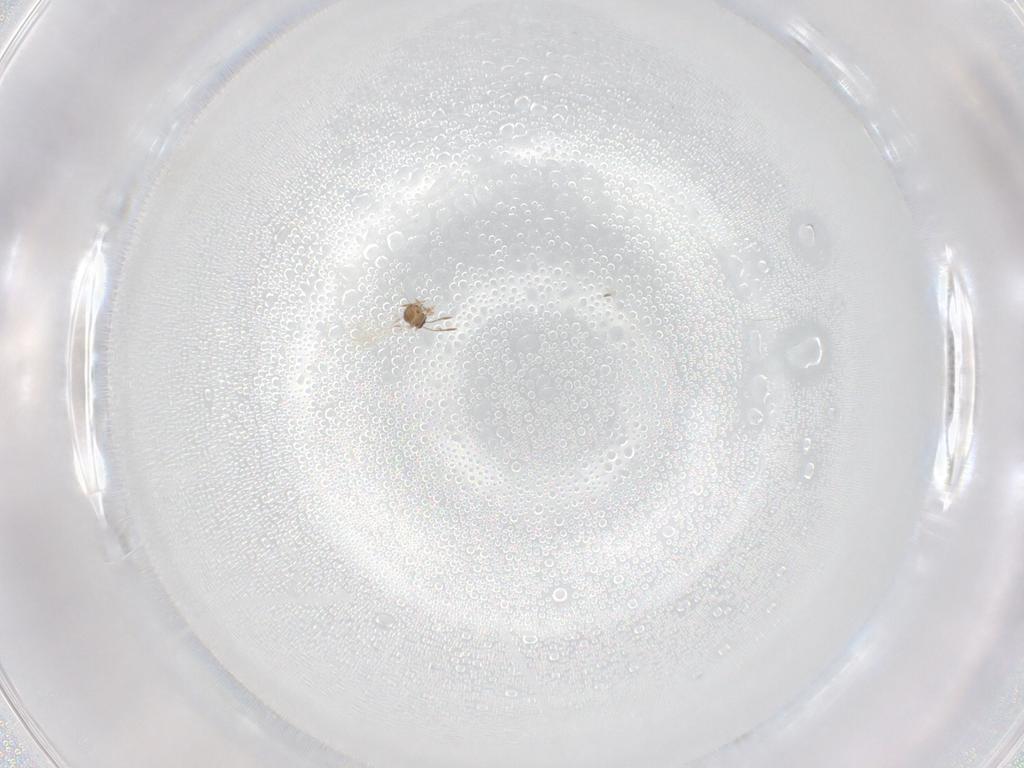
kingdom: Animalia
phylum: Arthropoda
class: Insecta
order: Hymenoptera
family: Mymaridae
